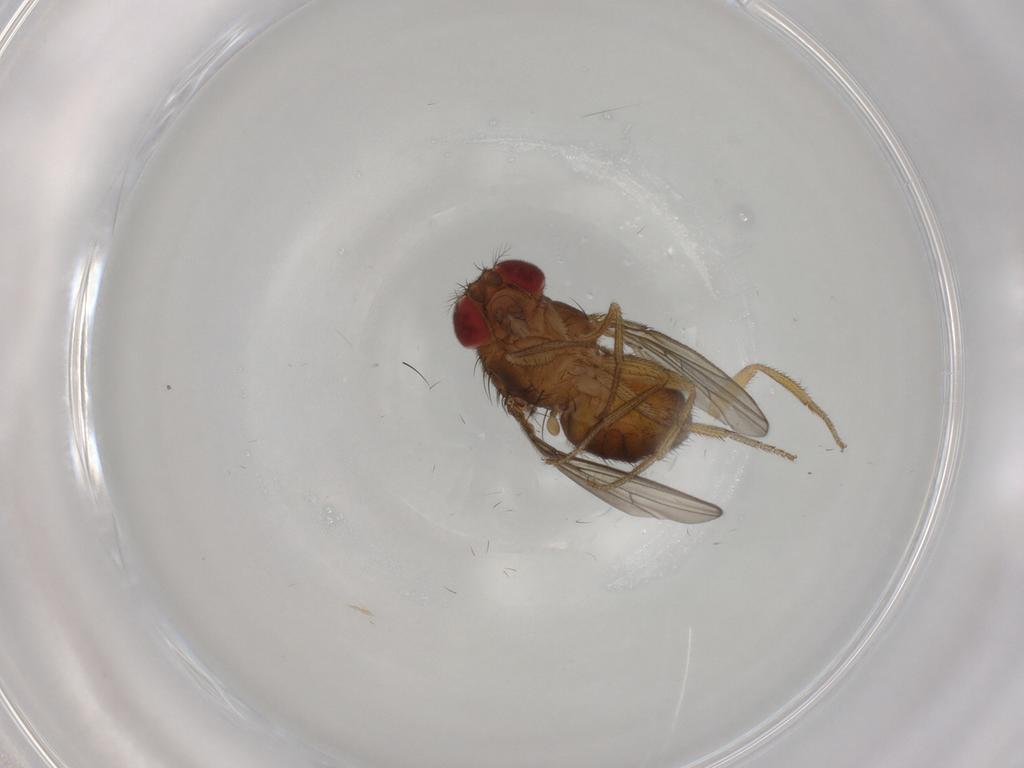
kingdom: Animalia
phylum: Arthropoda
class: Insecta
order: Diptera
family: Drosophilidae
